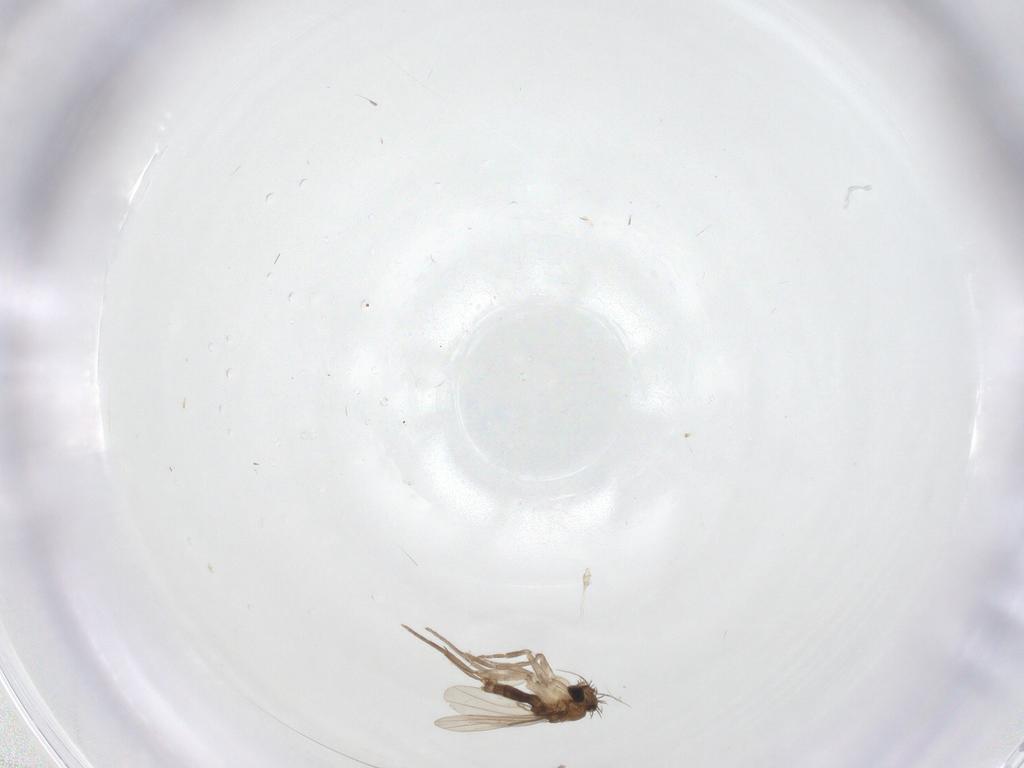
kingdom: Animalia
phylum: Arthropoda
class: Insecta
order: Diptera
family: Phoridae
